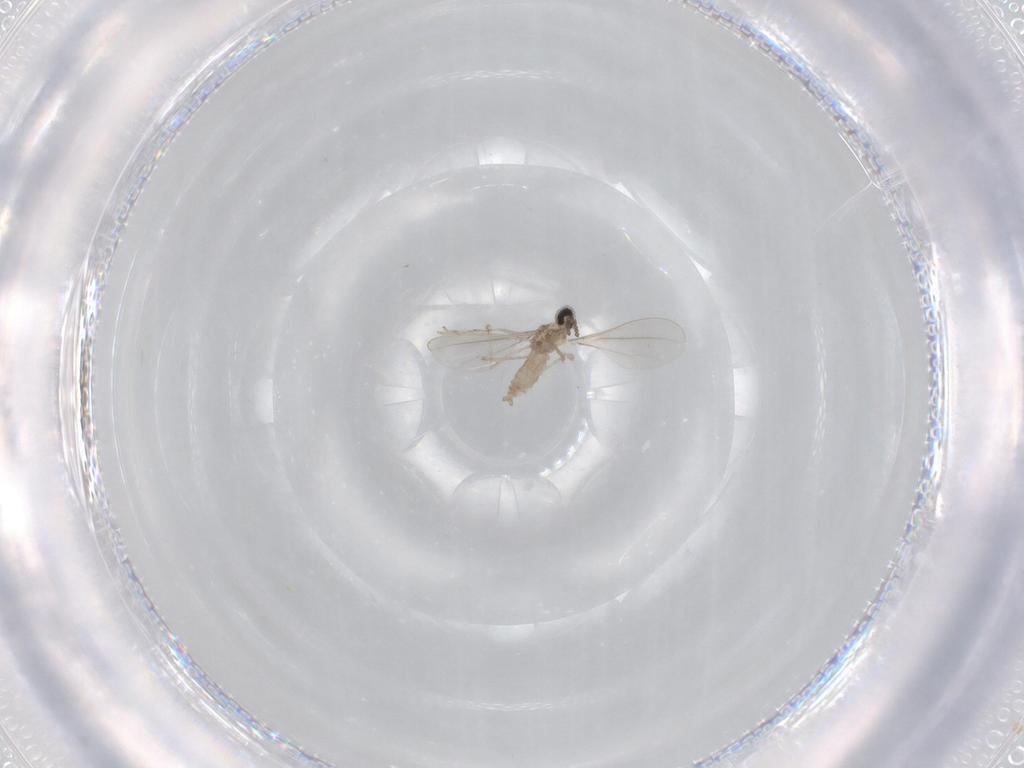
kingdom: Animalia
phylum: Arthropoda
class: Insecta
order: Diptera
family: Cecidomyiidae
